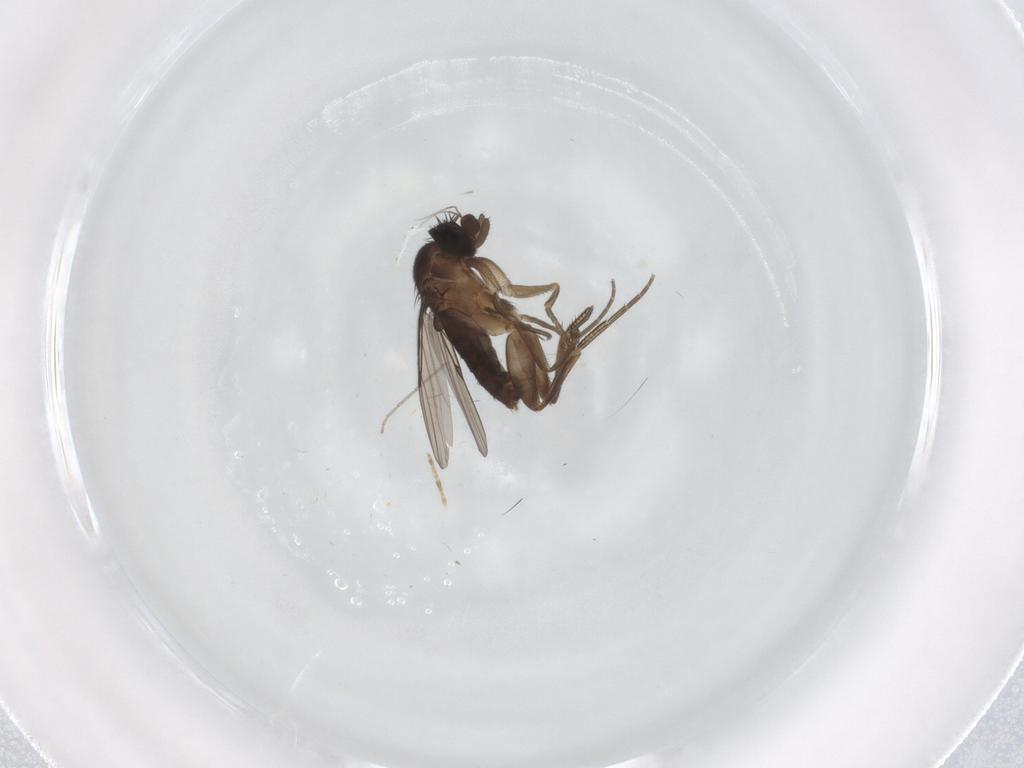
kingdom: Animalia
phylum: Arthropoda
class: Insecta
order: Diptera
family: Phoridae
